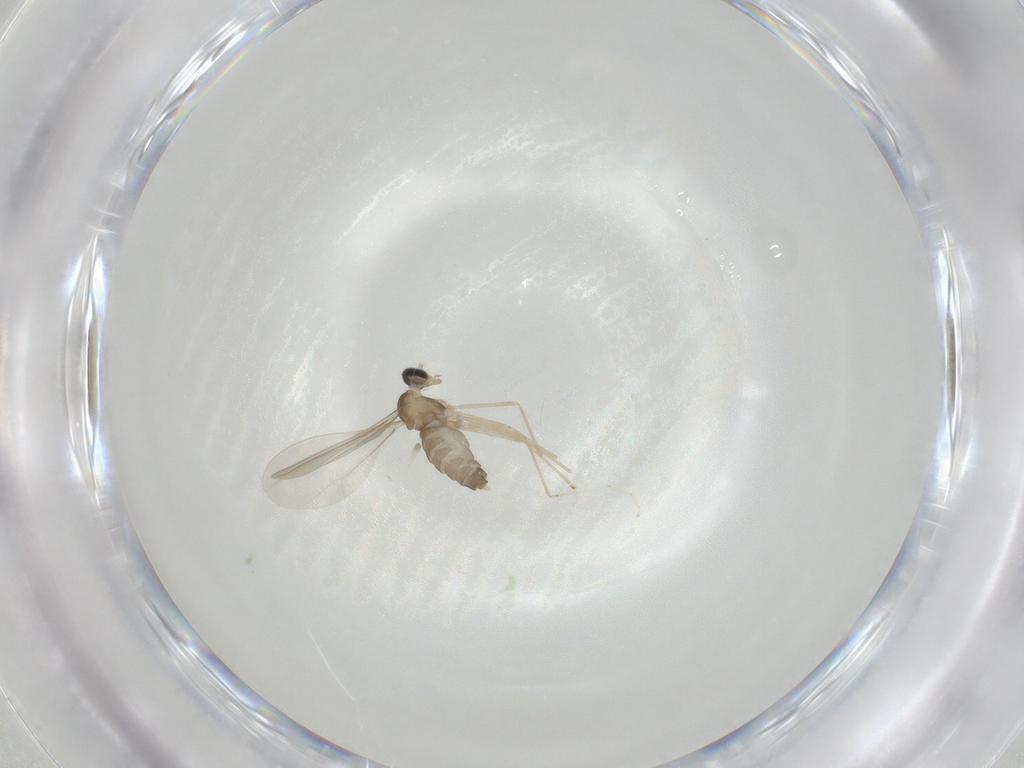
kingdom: Animalia
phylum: Arthropoda
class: Insecta
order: Diptera
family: Cecidomyiidae
